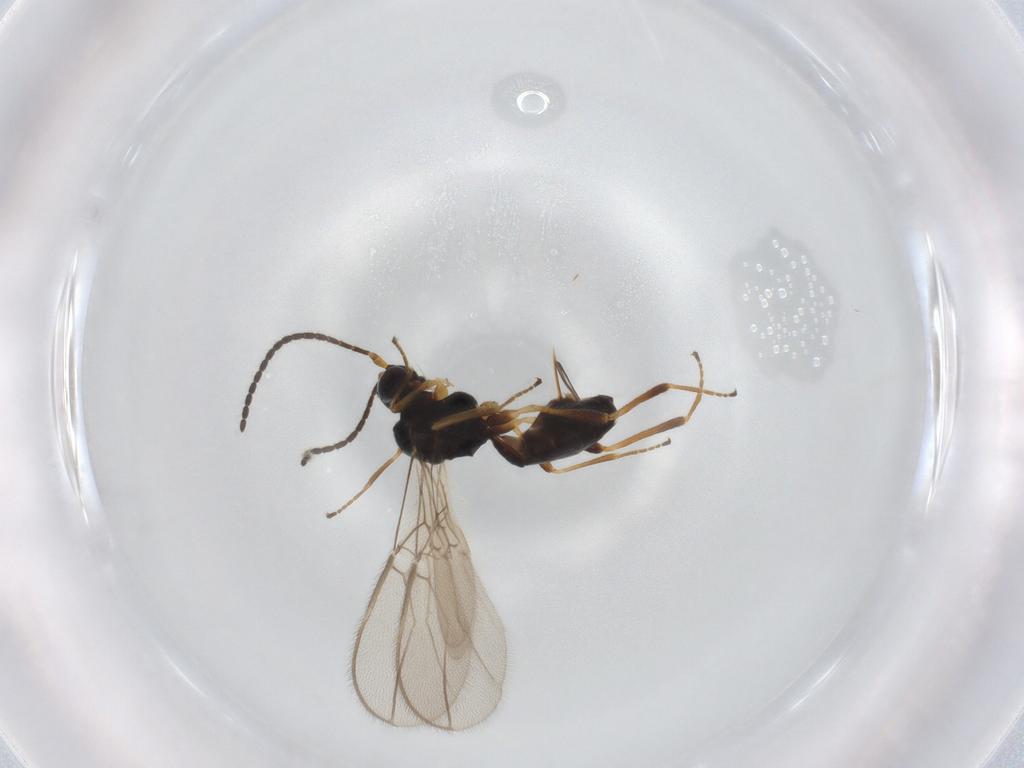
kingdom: Animalia
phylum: Arthropoda
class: Insecta
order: Hymenoptera
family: Braconidae
